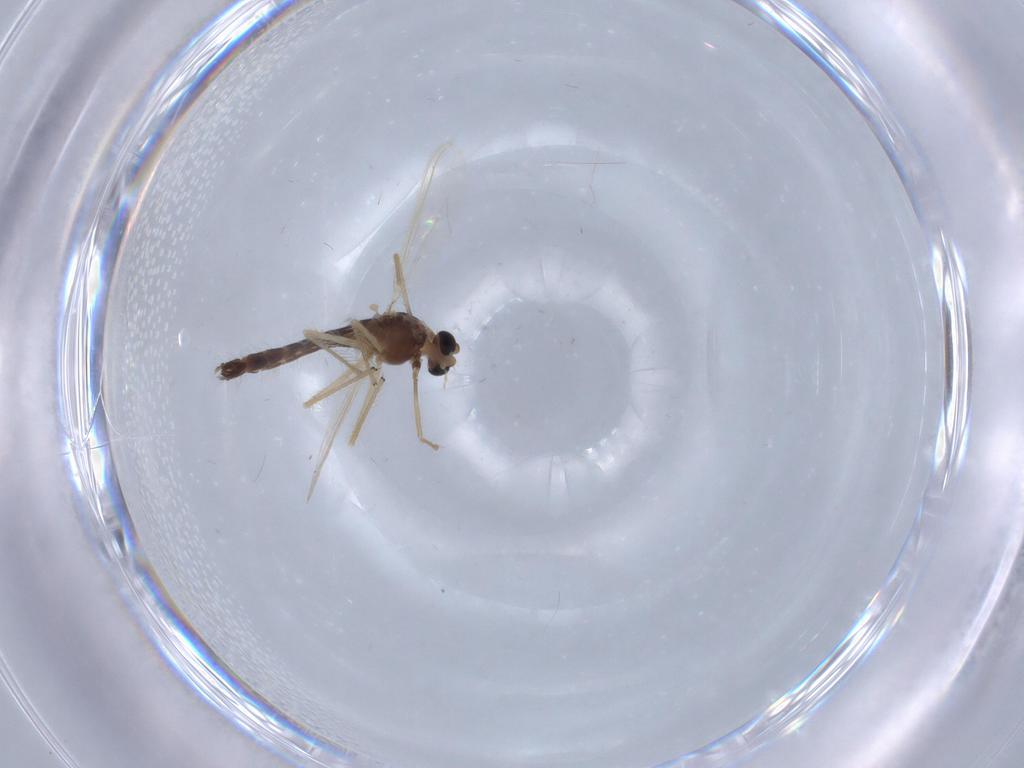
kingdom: Animalia
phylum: Arthropoda
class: Insecta
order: Diptera
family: Chironomidae
